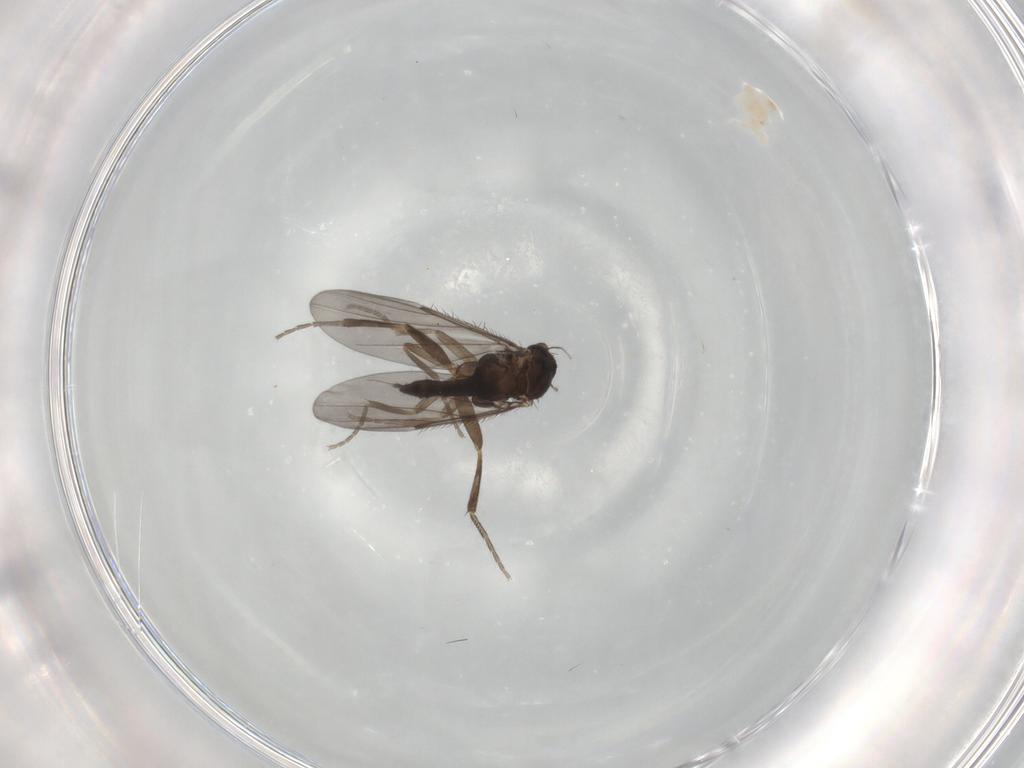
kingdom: Animalia
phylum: Arthropoda
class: Insecta
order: Diptera
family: Phoridae
